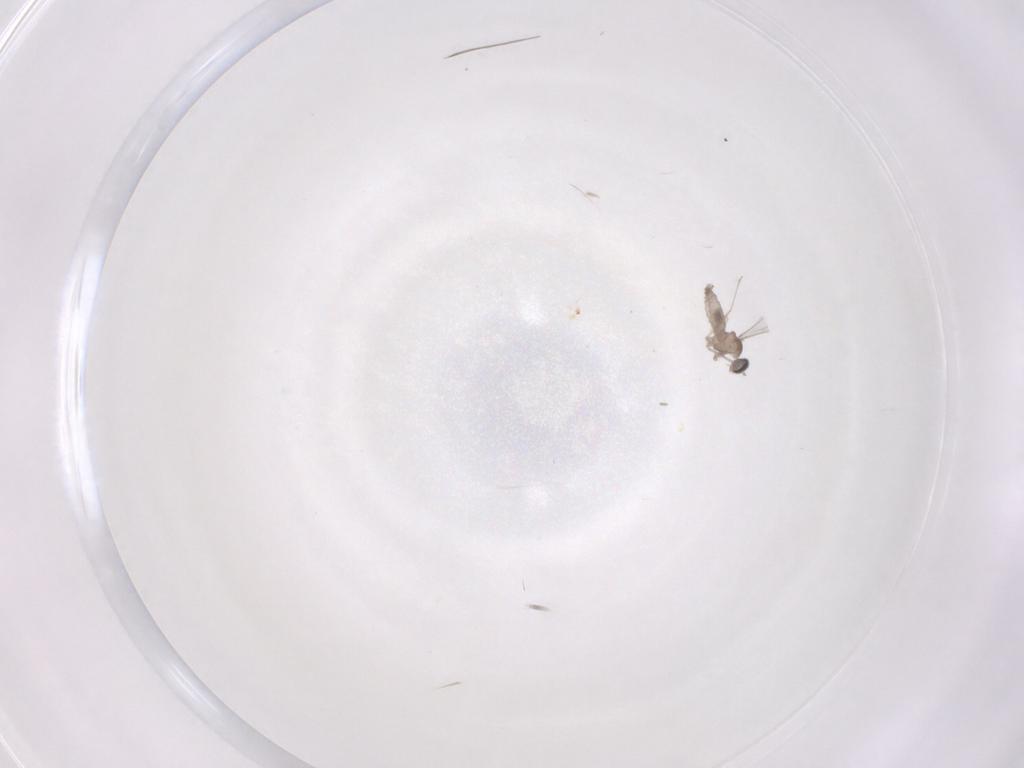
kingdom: Animalia
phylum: Arthropoda
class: Insecta
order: Diptera
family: Cecidomyiidae
